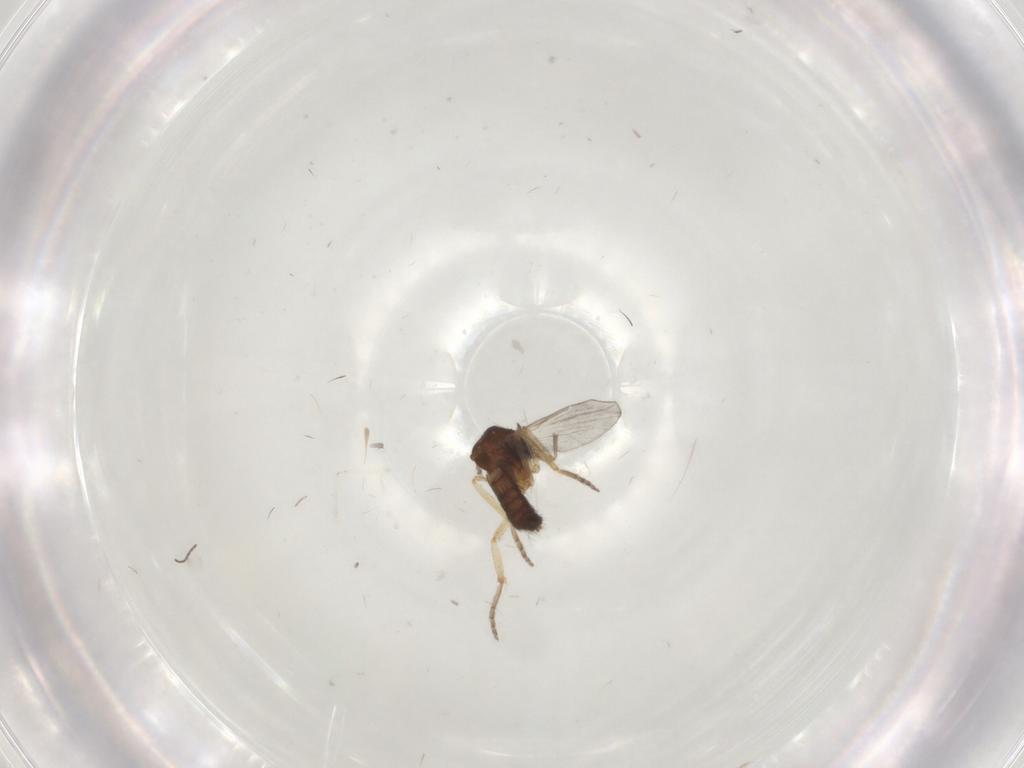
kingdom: Animalia
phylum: Arthropoda
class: Insecta
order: Diptera
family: Ceratopogonidae
